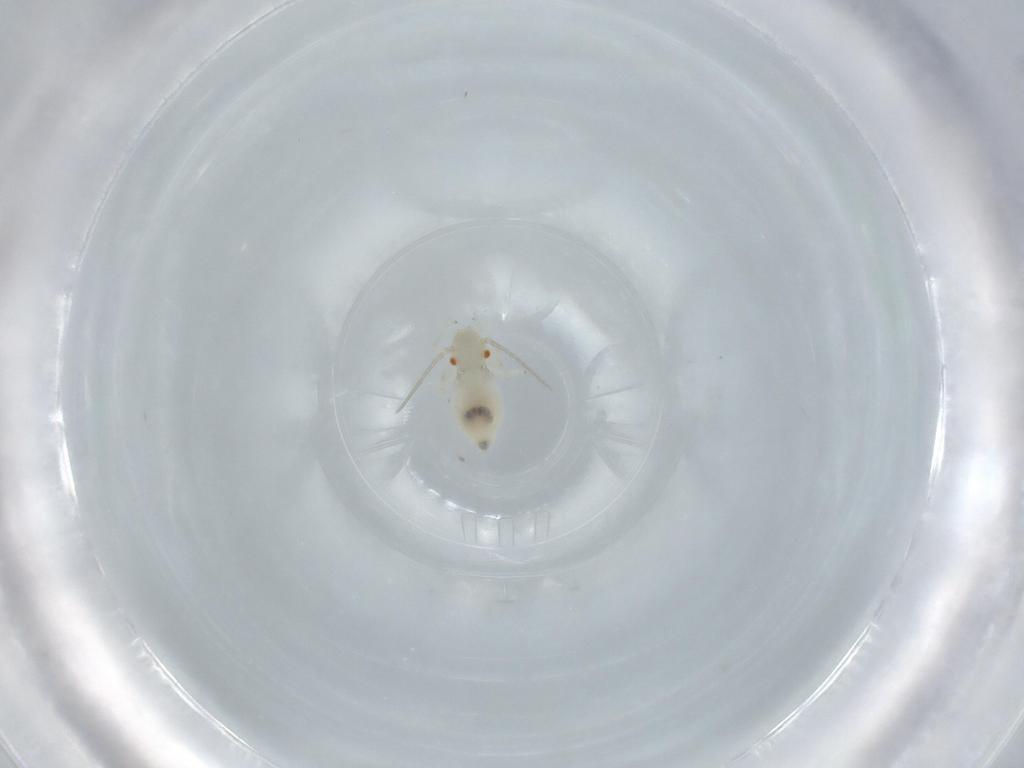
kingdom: Animalia
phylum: Arthropoda
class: Insecta
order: Psocodea
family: Caeciliusidae
